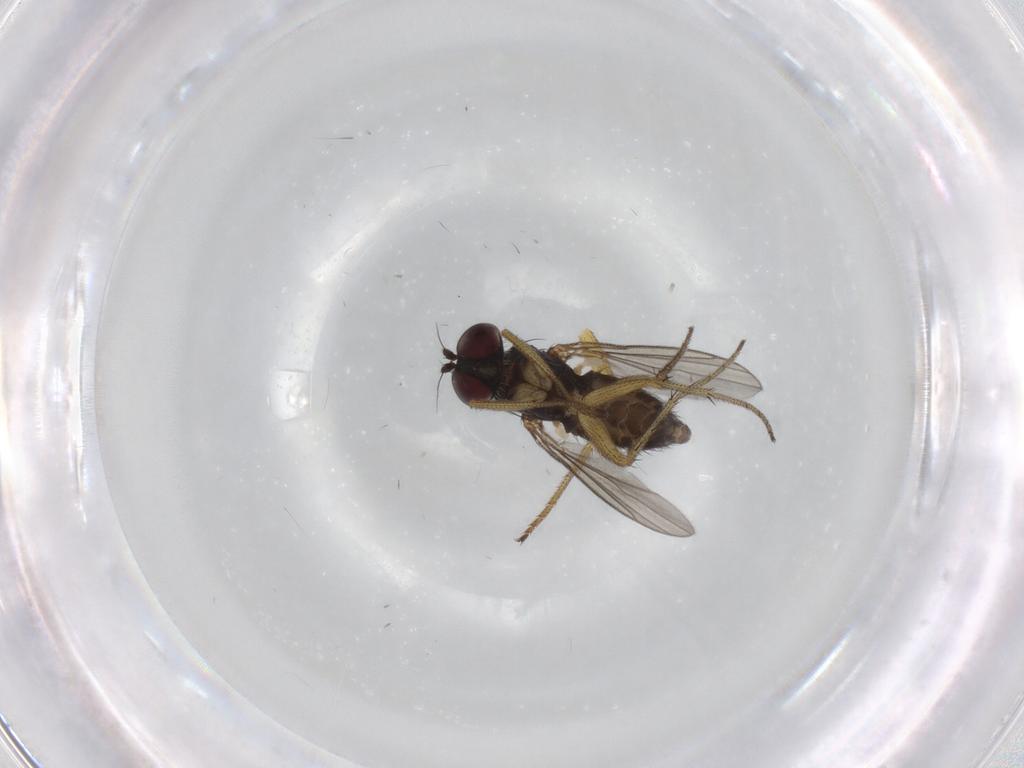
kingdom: Animalia
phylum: Arthropoda
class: Insecta
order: Diptera
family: Dolichopodidae
